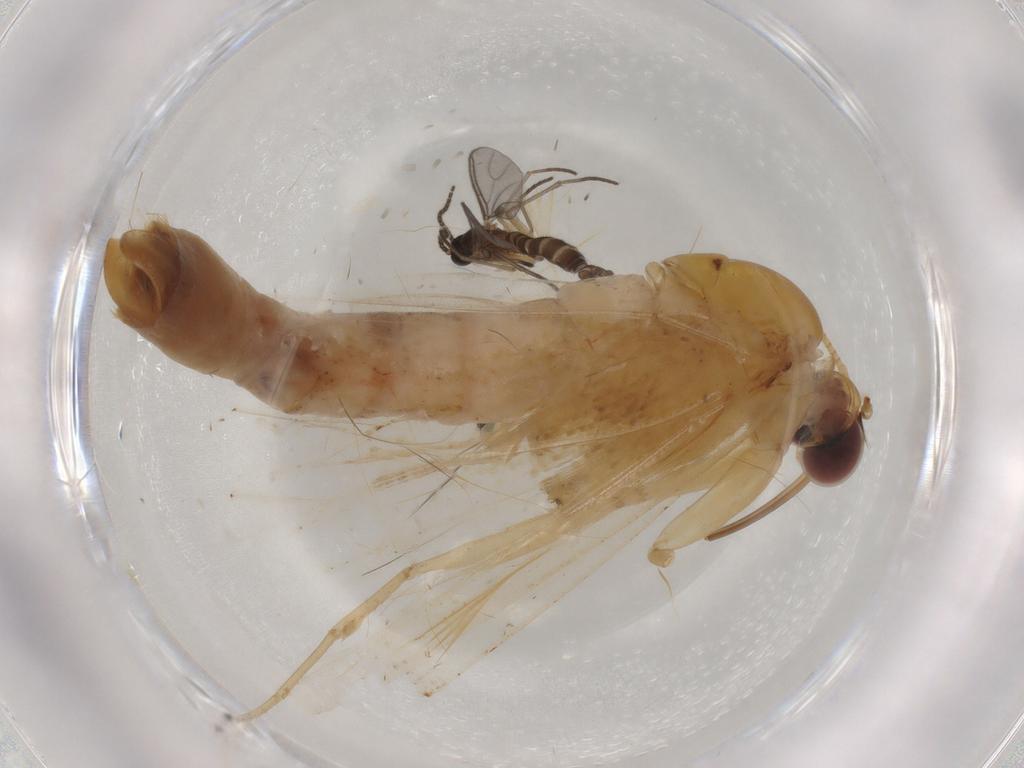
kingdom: Animalia
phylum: Arthropoda
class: Insecta
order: Lepidoptera
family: Geometridae
